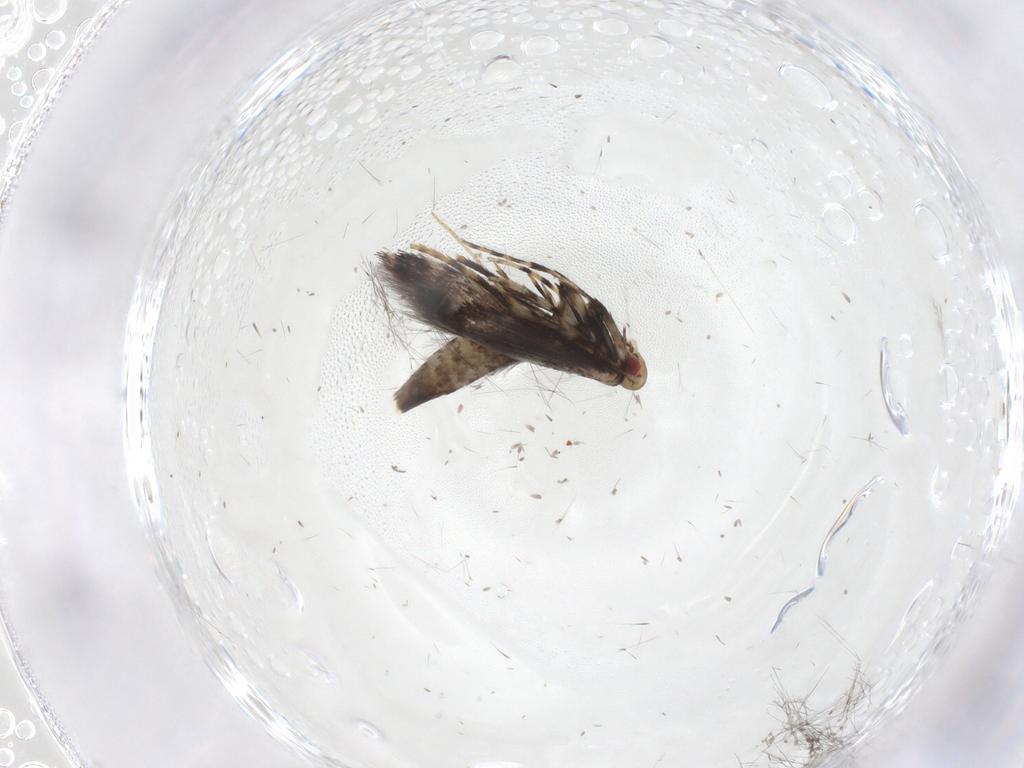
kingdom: Animalia
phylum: Arthropoda
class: Insecta
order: Lepidoptera
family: Gracillariidae
